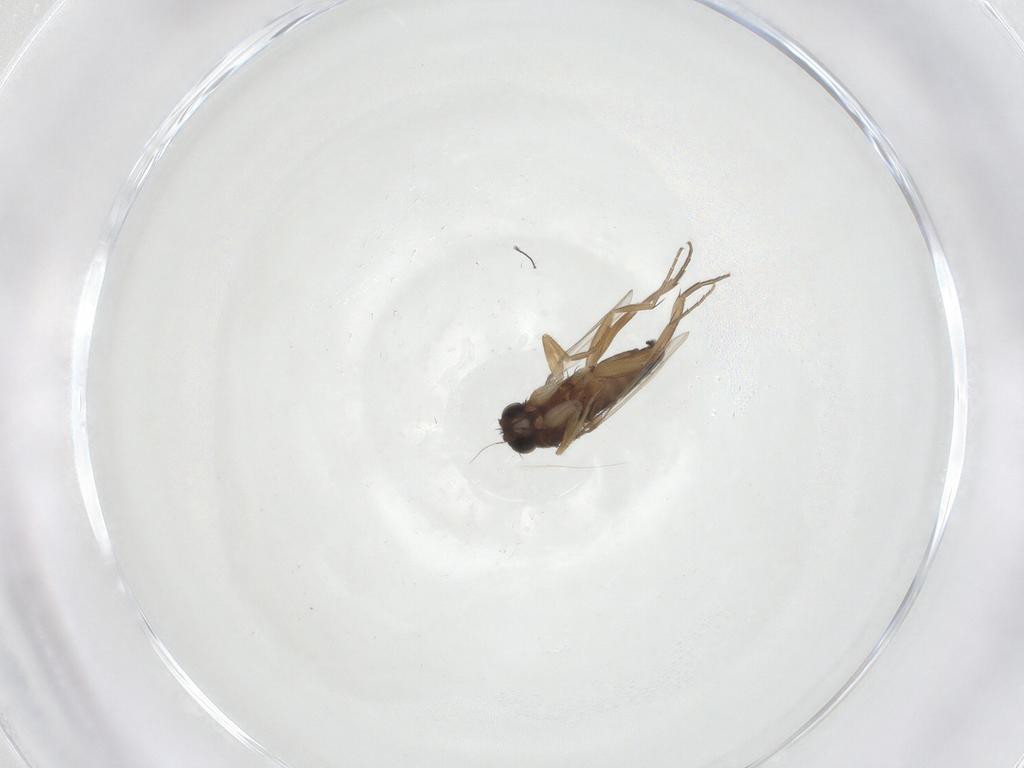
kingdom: Animalia
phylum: Arthropoda
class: Insecta
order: Diptera
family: Phoridae
